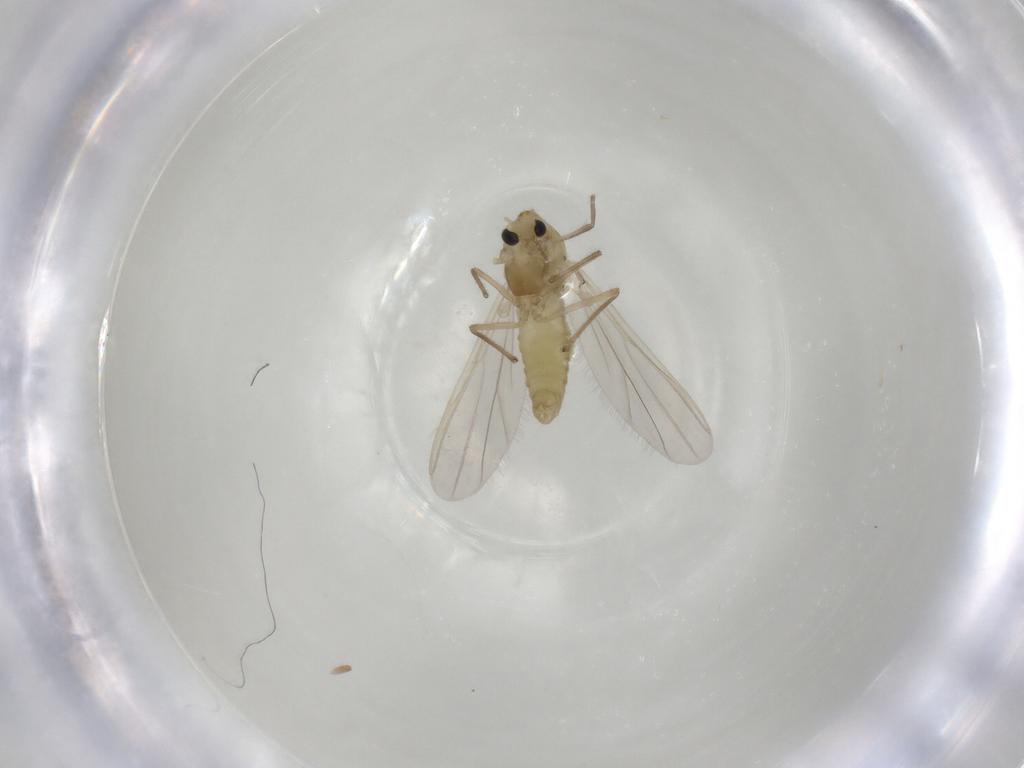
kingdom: Animalia
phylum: Arthropoda
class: Insecta
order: Diptera
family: Chironomidae
